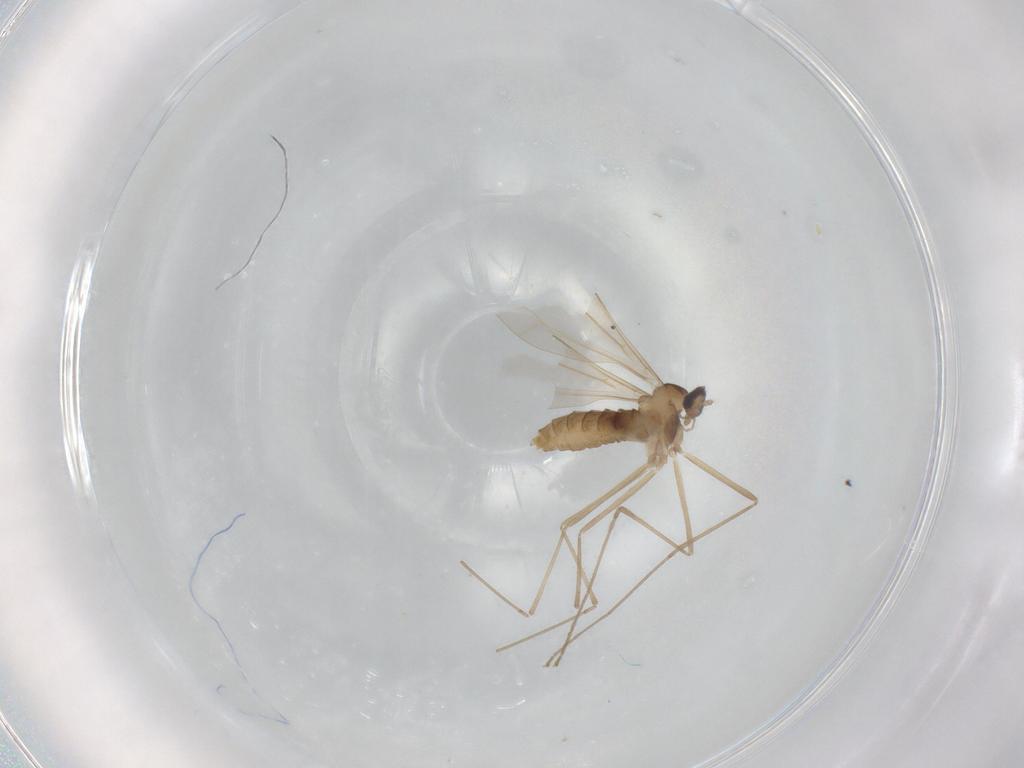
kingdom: Animalia
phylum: Arthropoda
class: Insecta
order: Diptera
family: Cecidomyiidae
